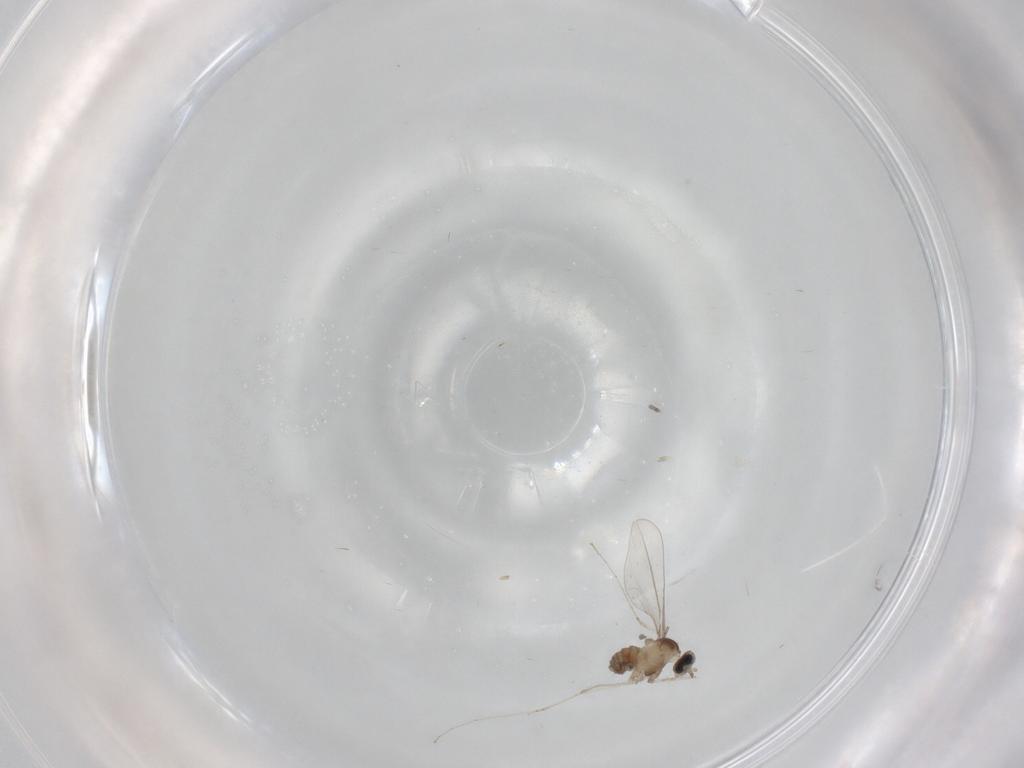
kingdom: Animalia
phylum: Arthropoda
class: Insecta
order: Diptera
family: Cecidomyiidae
